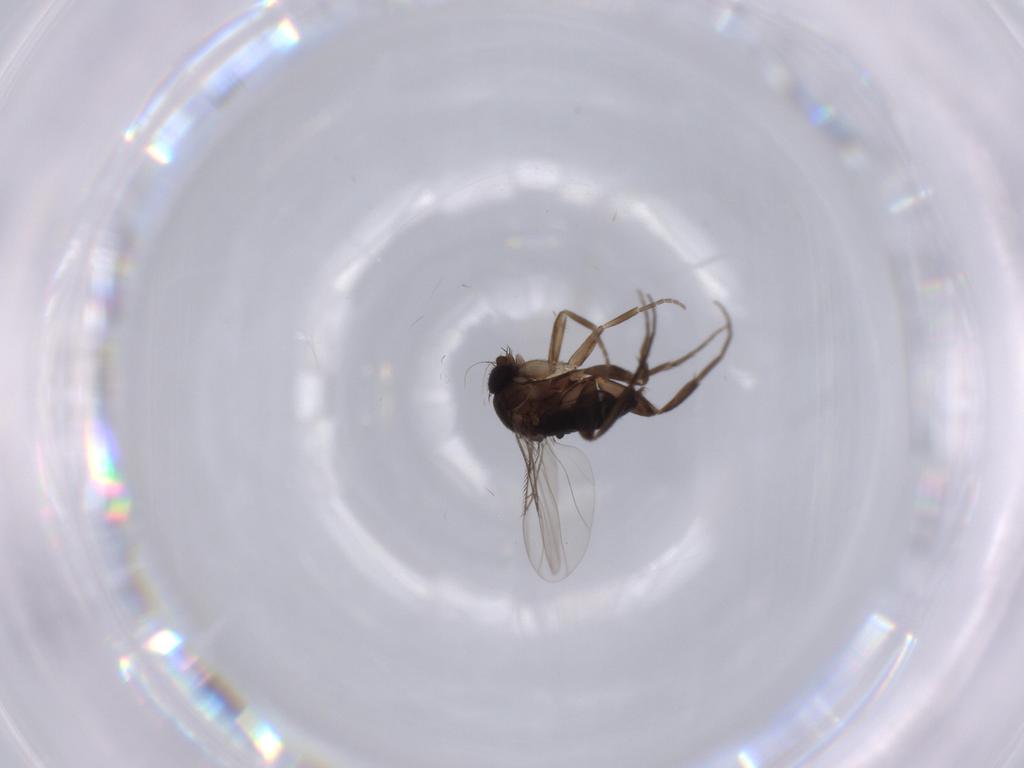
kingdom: Animalia
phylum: Arthropoda
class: Insecta
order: Diptera
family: Phoridae
